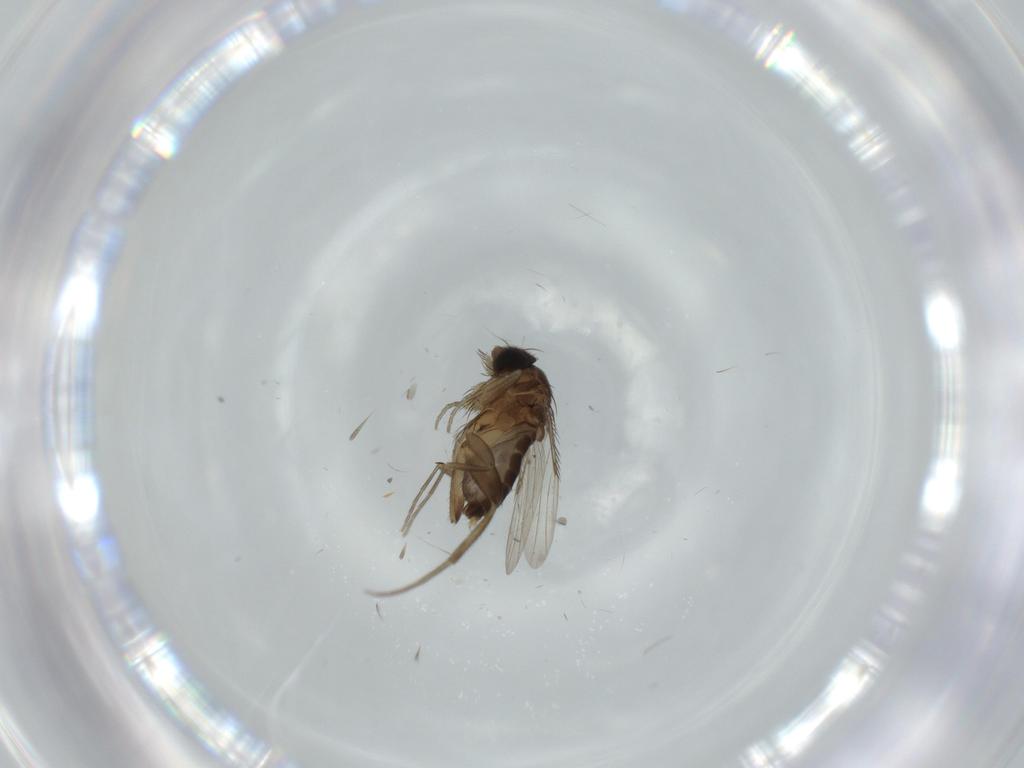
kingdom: Animalia
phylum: Arthropoda
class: Insecta
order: Diptera
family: Phoridae
